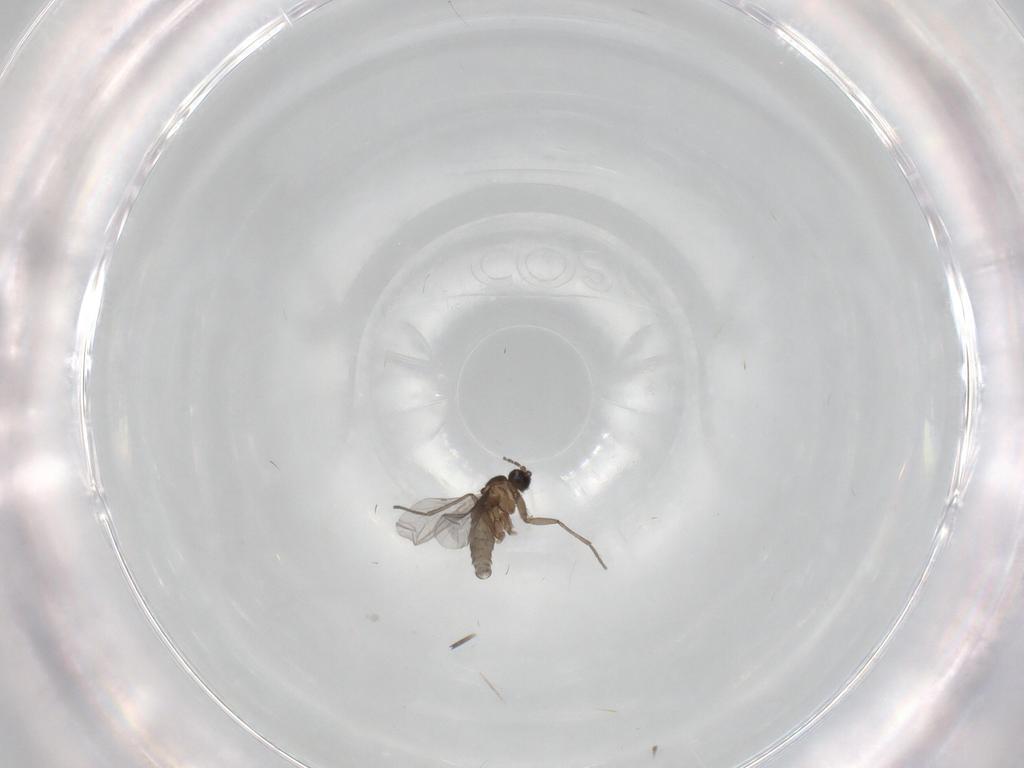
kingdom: Animalia
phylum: Arthropoda
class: Insecta
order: Diptera
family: Sciaridae
